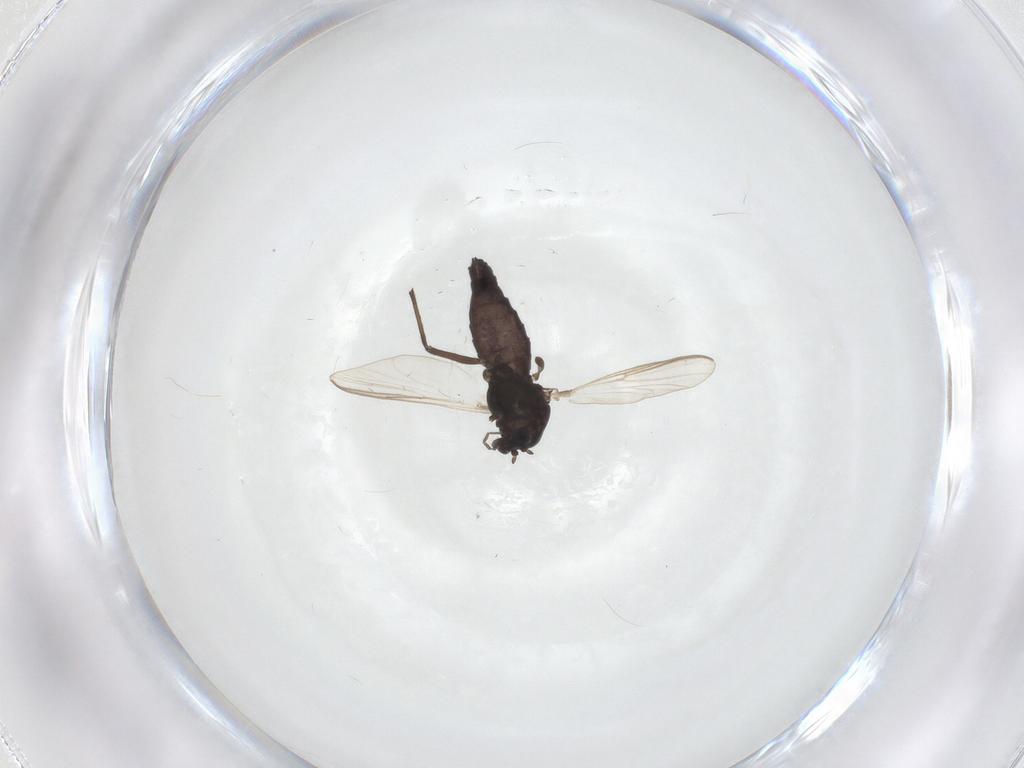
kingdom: Animalia
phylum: Arthropoda
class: Insecta
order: Diptera
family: Chironomidae
